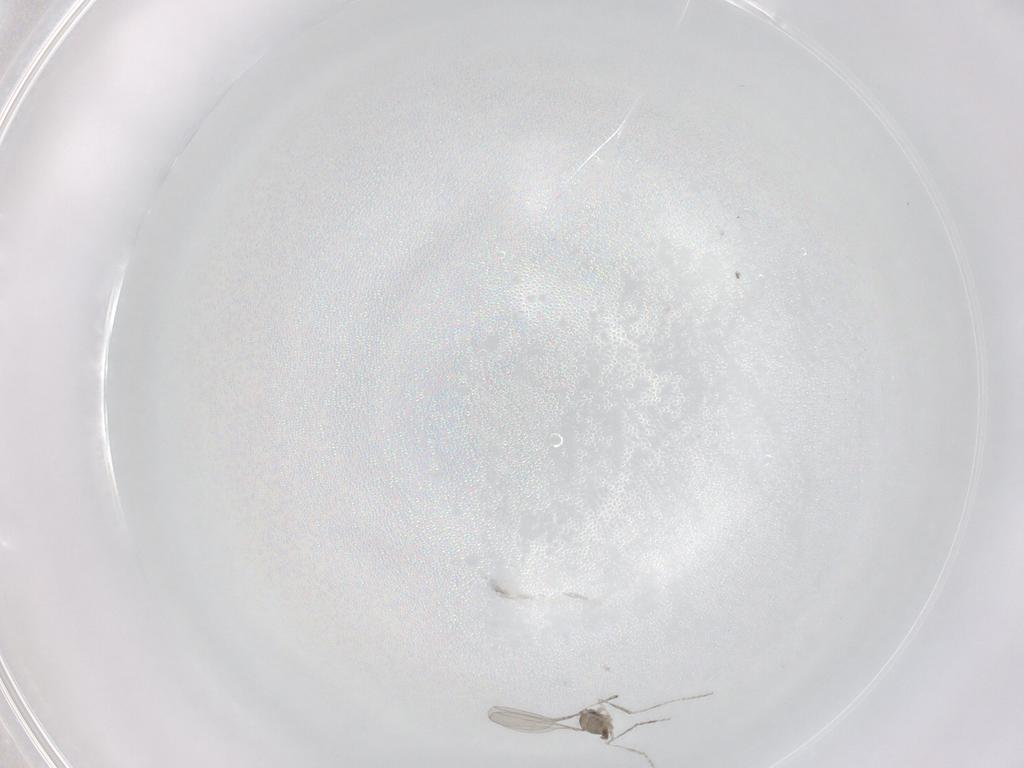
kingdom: Animalia
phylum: Arthropoda
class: Insecta
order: Diptera
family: Cecidomyiidae
